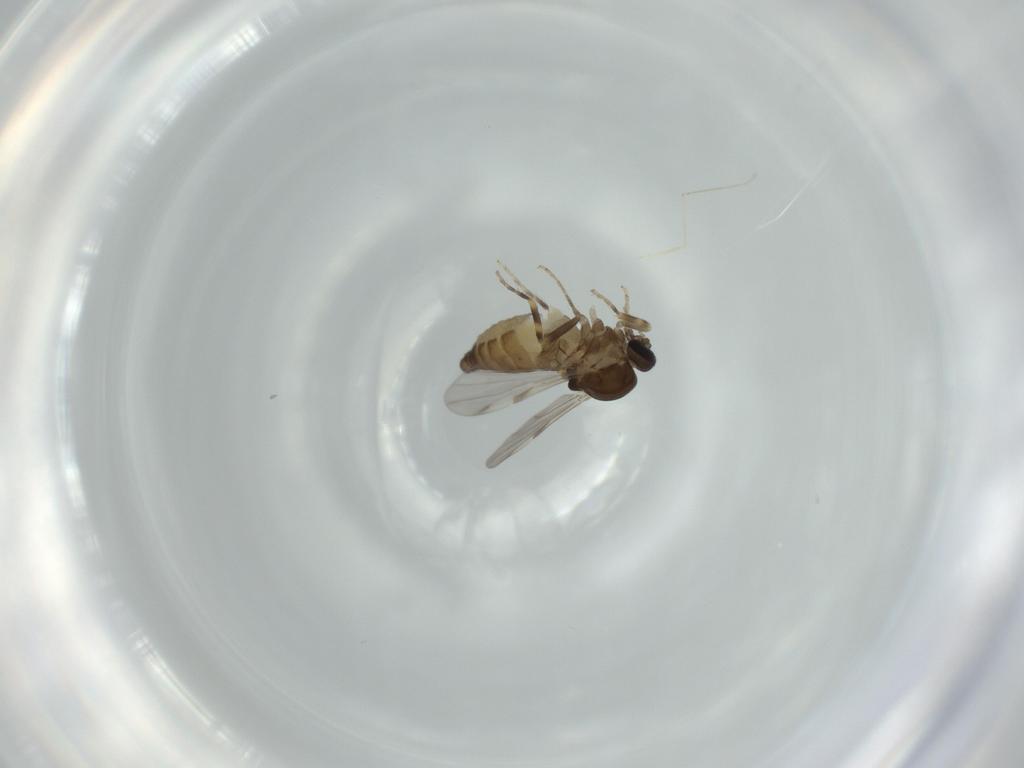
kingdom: Animalia
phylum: Arthropoda
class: Insecta
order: Diptera
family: Ceratopogonidae
